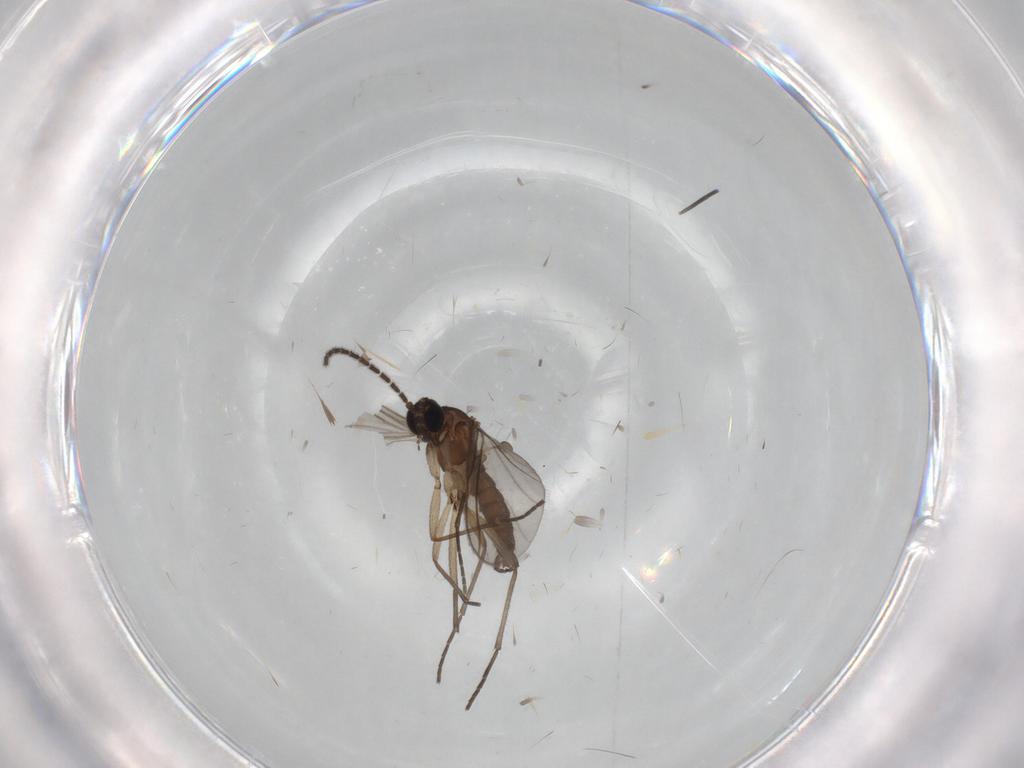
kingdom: Animalia
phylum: Arthropoda
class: Insecta
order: Diptera
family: Sciaridae
